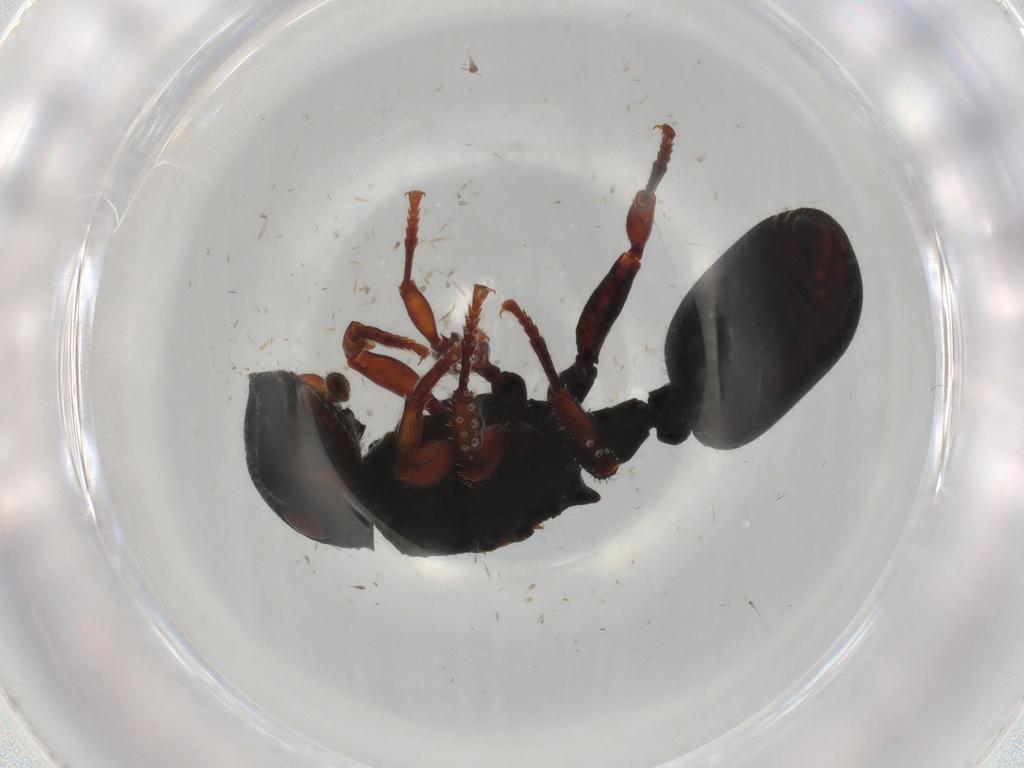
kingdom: Animalia
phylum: Arthropoda
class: Insecta
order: Hymenoptera
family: Formicidae
